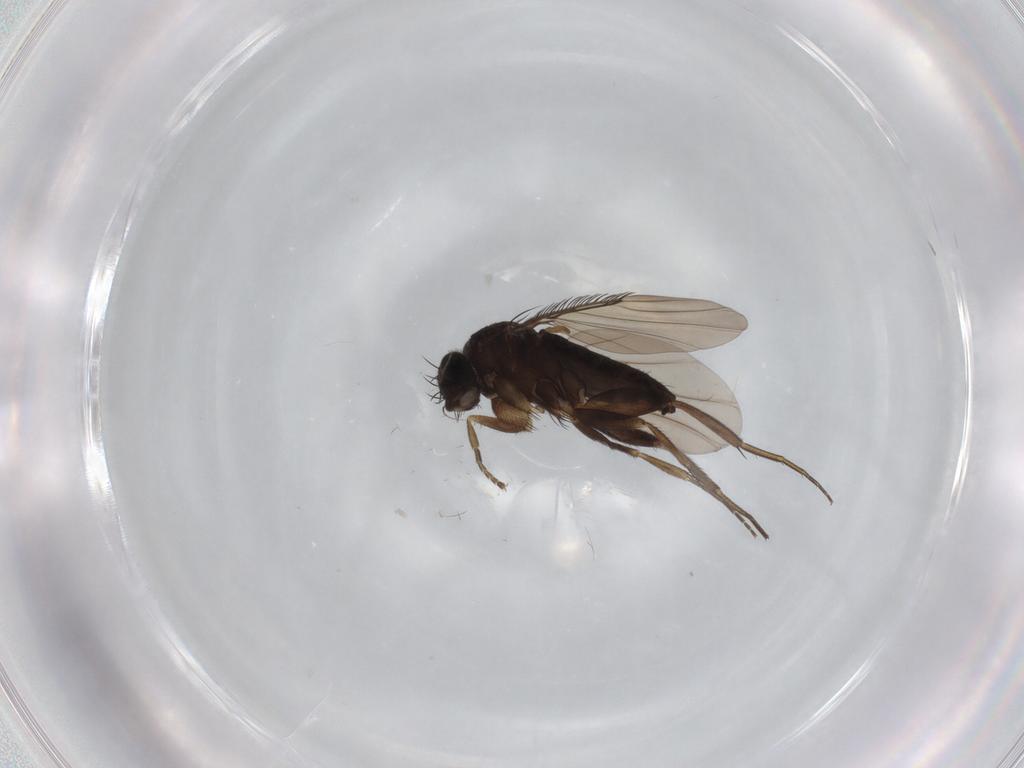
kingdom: Animalia
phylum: Arthropoda
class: Insecta
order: Diptera
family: Phoridae
